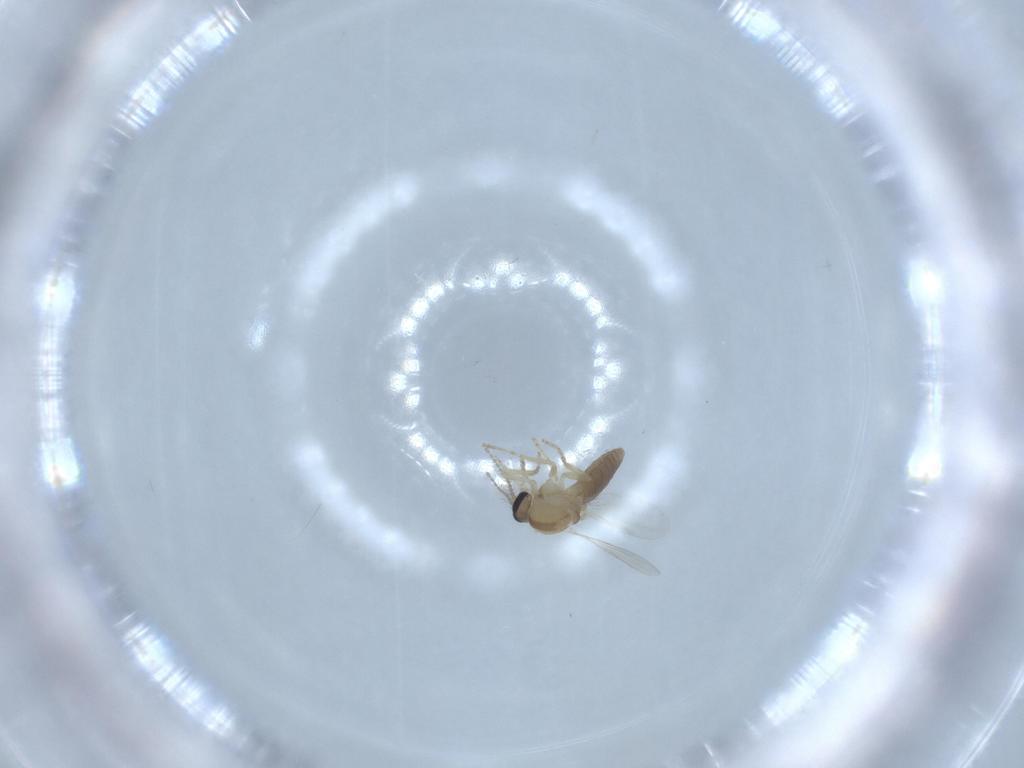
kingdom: Animalia
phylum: Arthropoda
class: Insecta
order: Diptera
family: Ceratopogonidae
